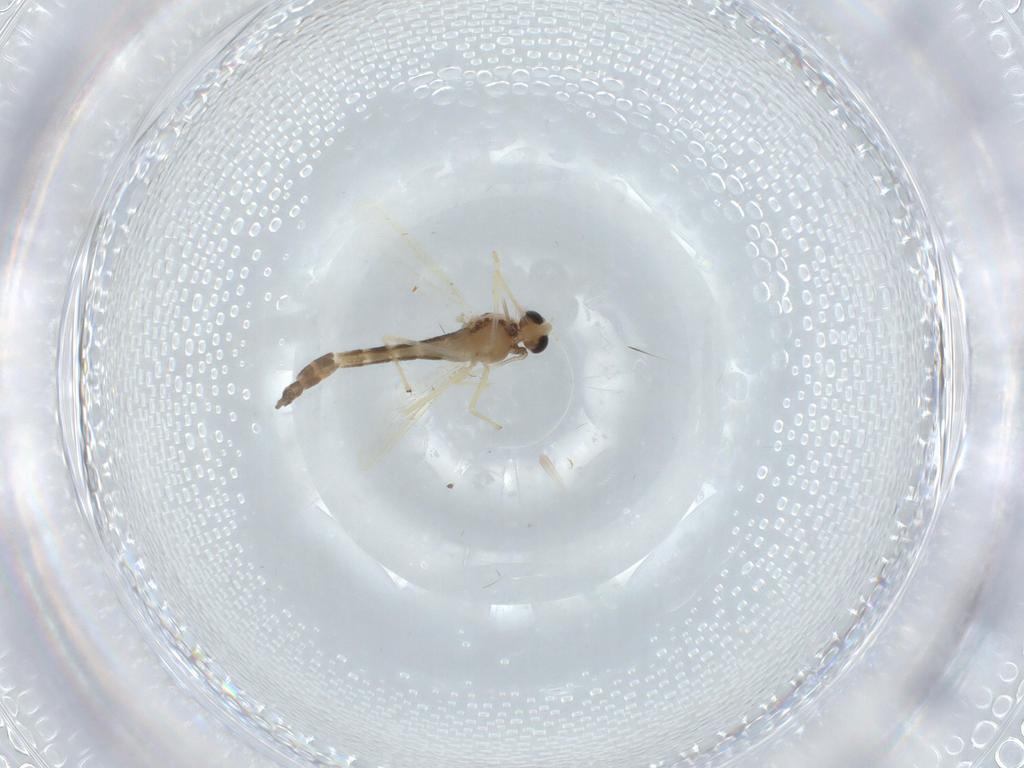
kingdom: Animalia
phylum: Arthropoda
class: Insecta
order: Diptera
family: Chironomidae
